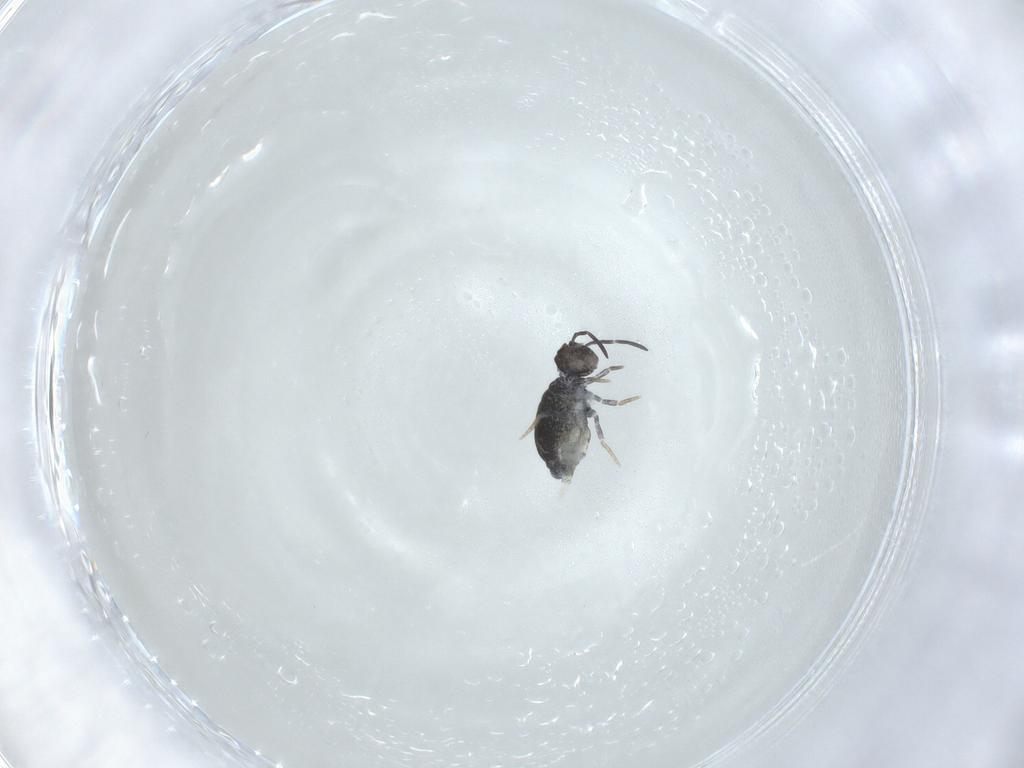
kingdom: Animalia
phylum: Arthropoda
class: Collembola
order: Symphypleona
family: Katiannidae
